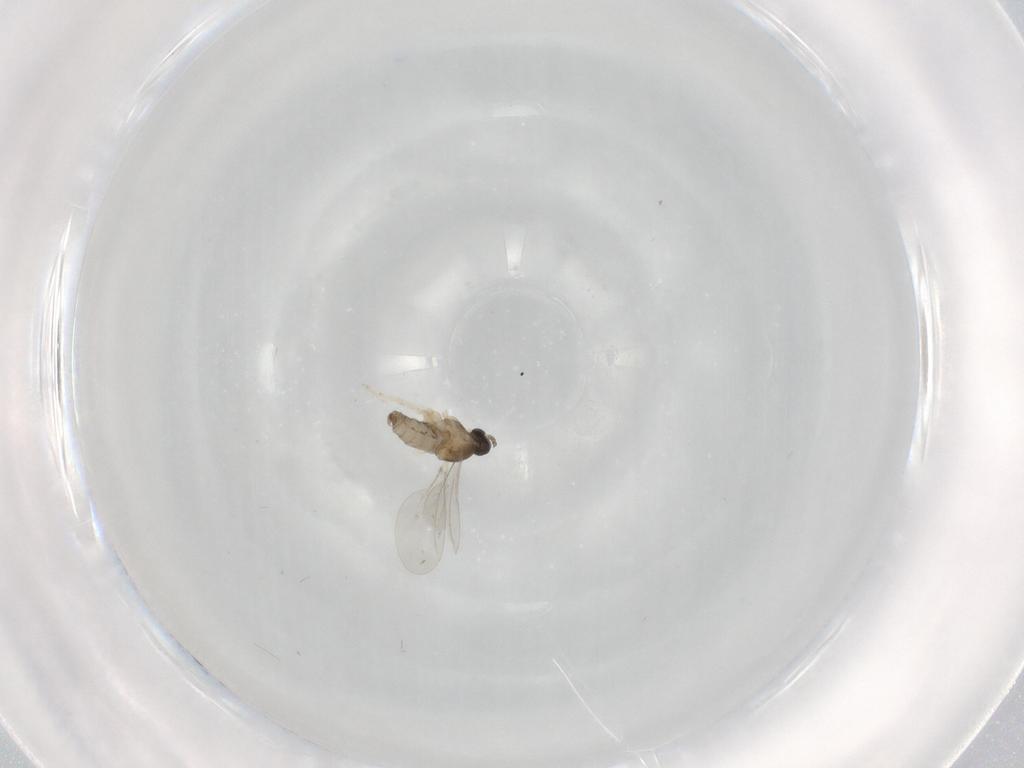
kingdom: Animalia
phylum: Arthropoda
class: Insecta
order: Diptera
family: Cecidomyiidae
